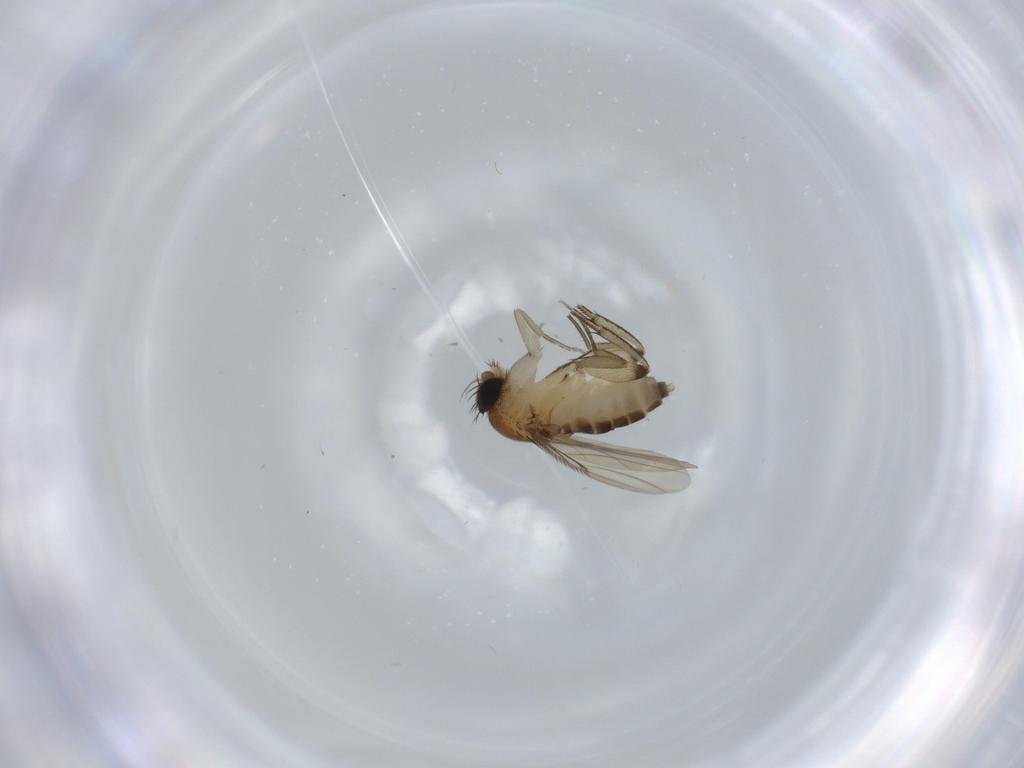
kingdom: Animalia
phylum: Arthropoda
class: Insecta
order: Diptera
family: Phoridae
